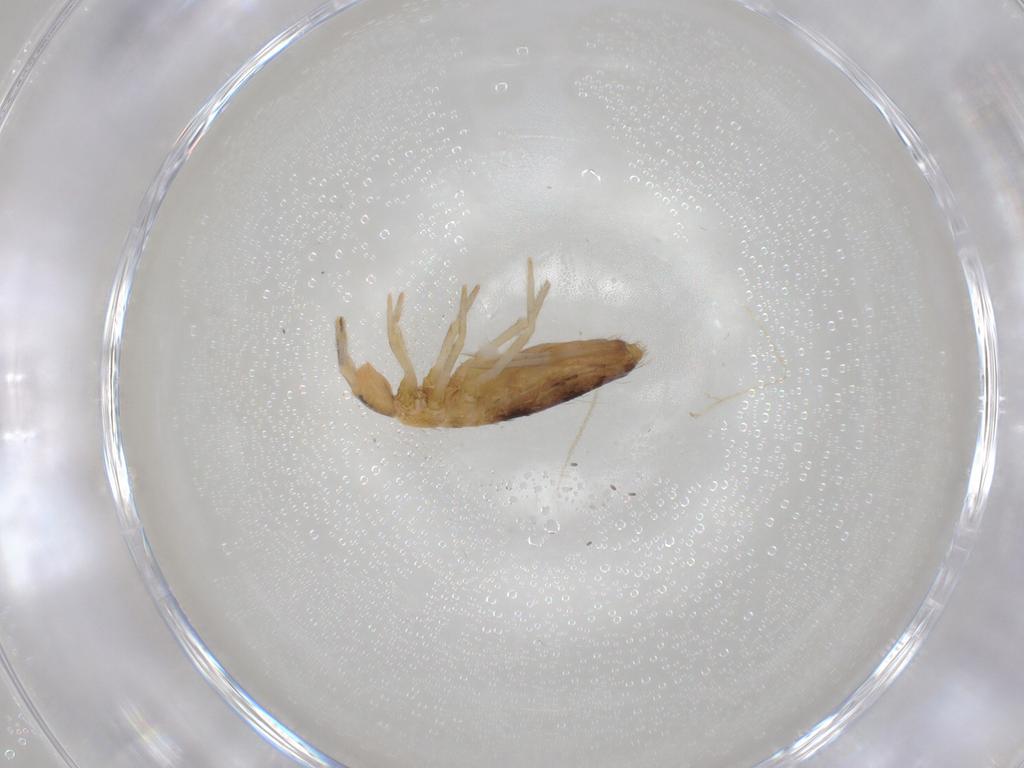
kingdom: Animalia
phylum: Arthropoda
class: Collembola
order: Entomobryomorpha
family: Entomobryidae
